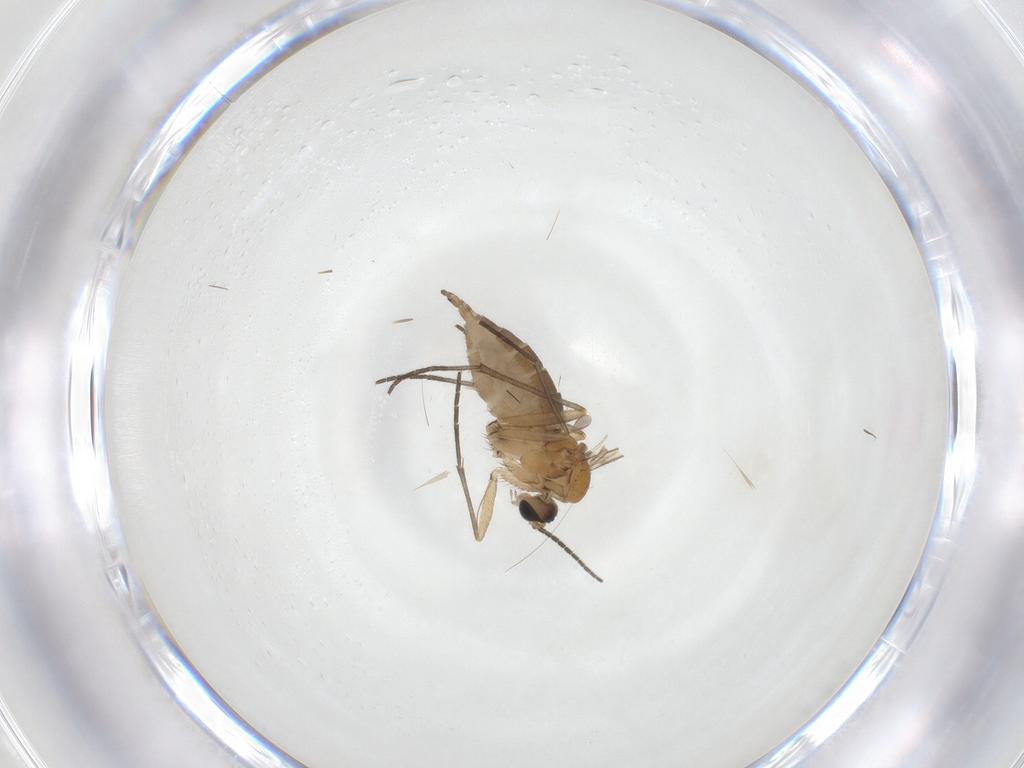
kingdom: Animalia
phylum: Arthropoda
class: Insecta
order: Diptera
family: Sciaridae
